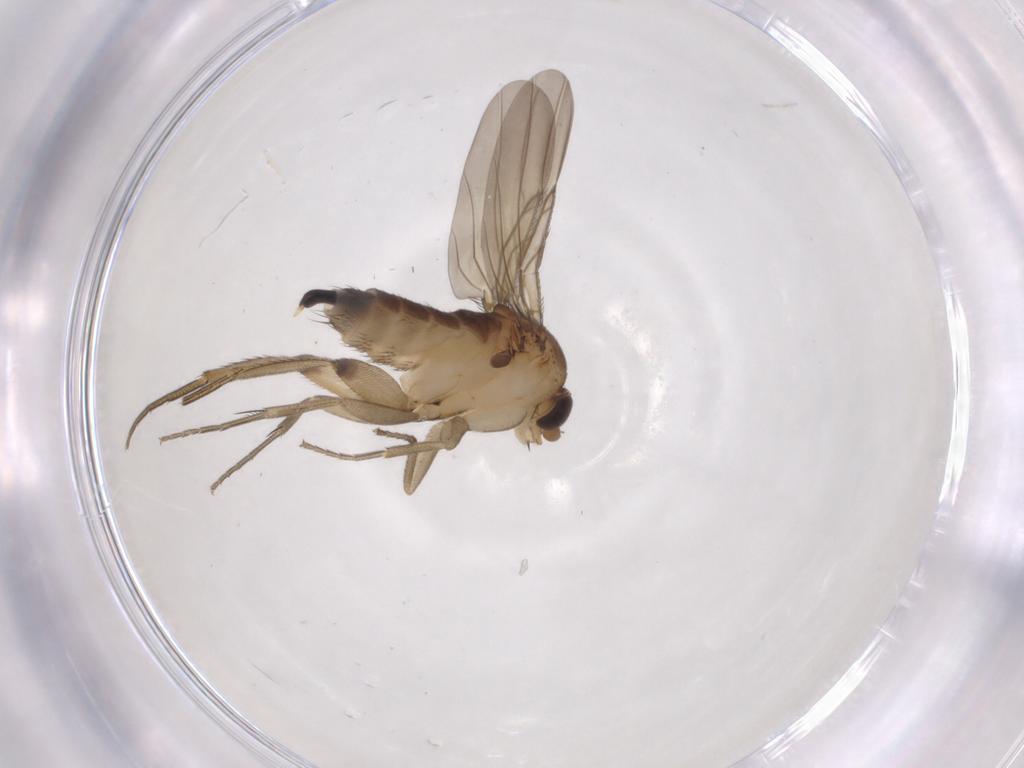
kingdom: Animalia
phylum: Arthropoda
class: Insecta
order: Diptera
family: Phoridae
